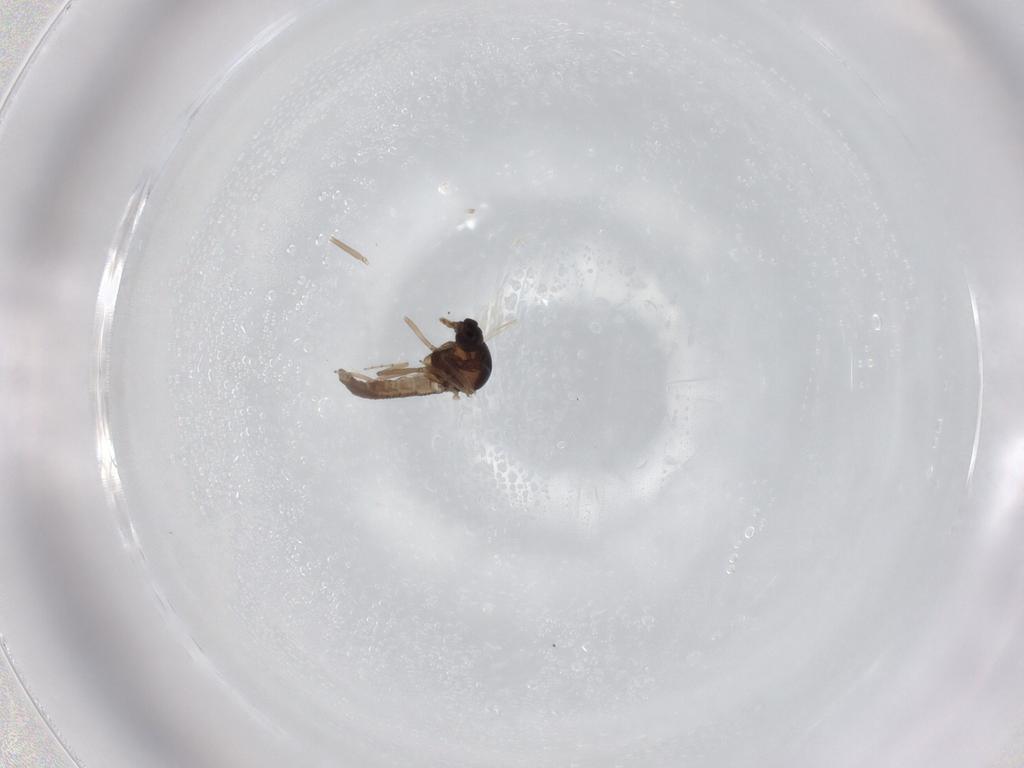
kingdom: Animalia
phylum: Arthropoda
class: Insecta
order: Diptera
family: Ceratopogonidae
